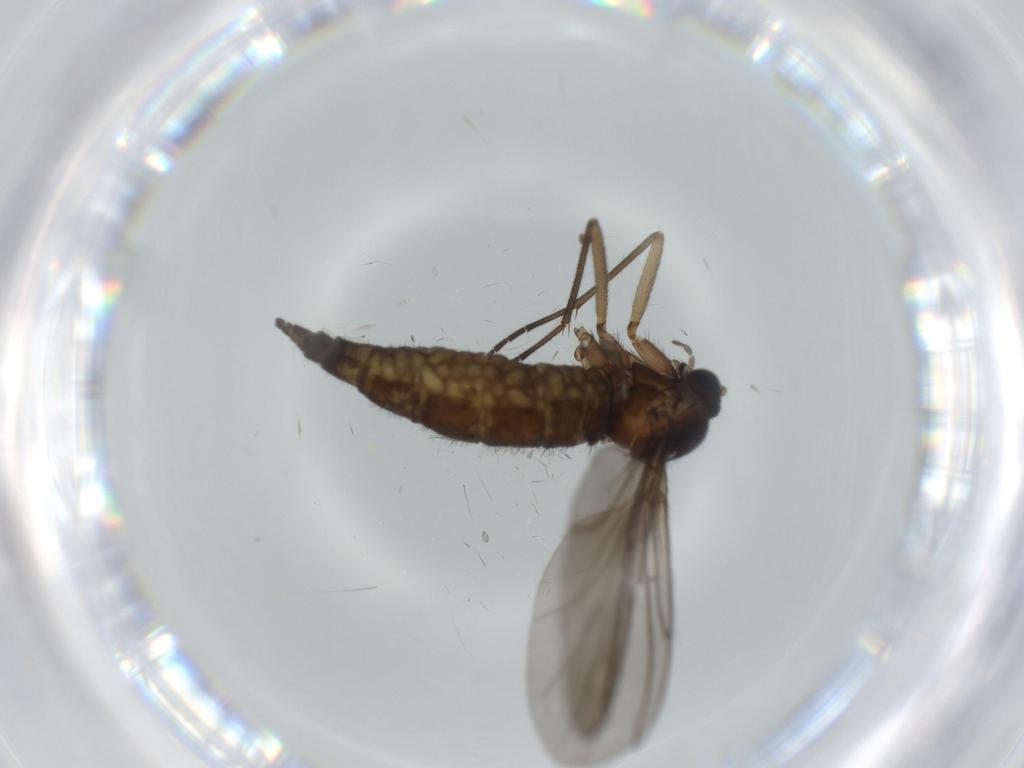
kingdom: Animalia
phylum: Arthropoda
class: Insecta
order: Diptera
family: Sciaridae
